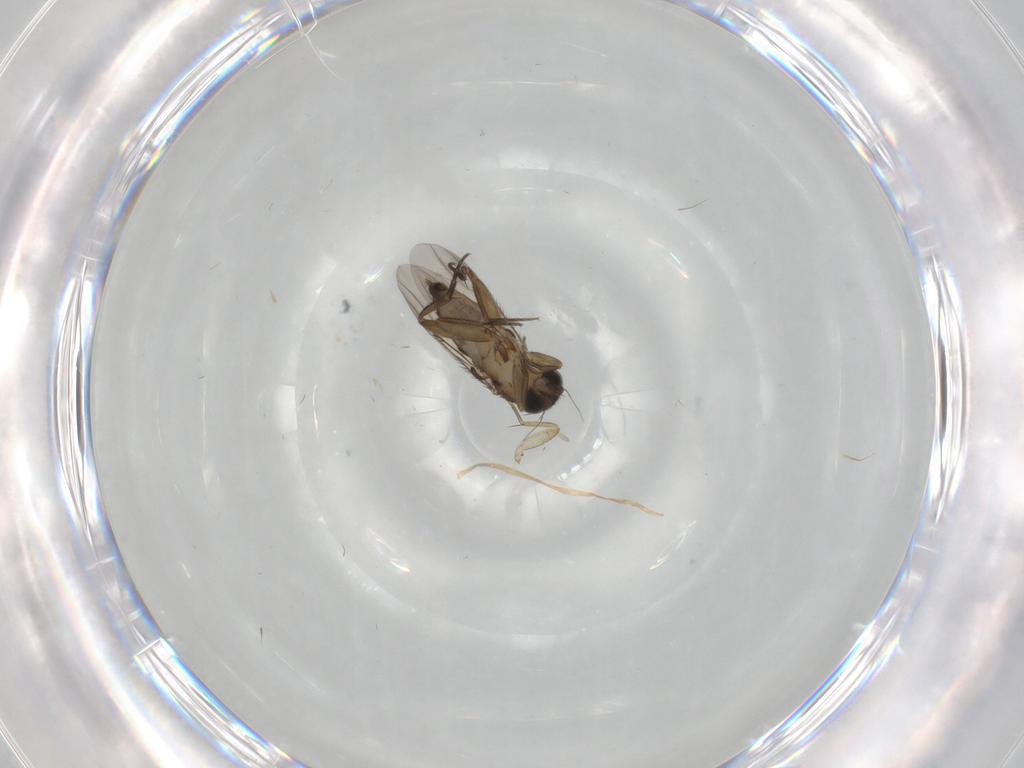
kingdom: Animalia
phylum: Arthropoda
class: Insecta
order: Diptera
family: Phoridae
